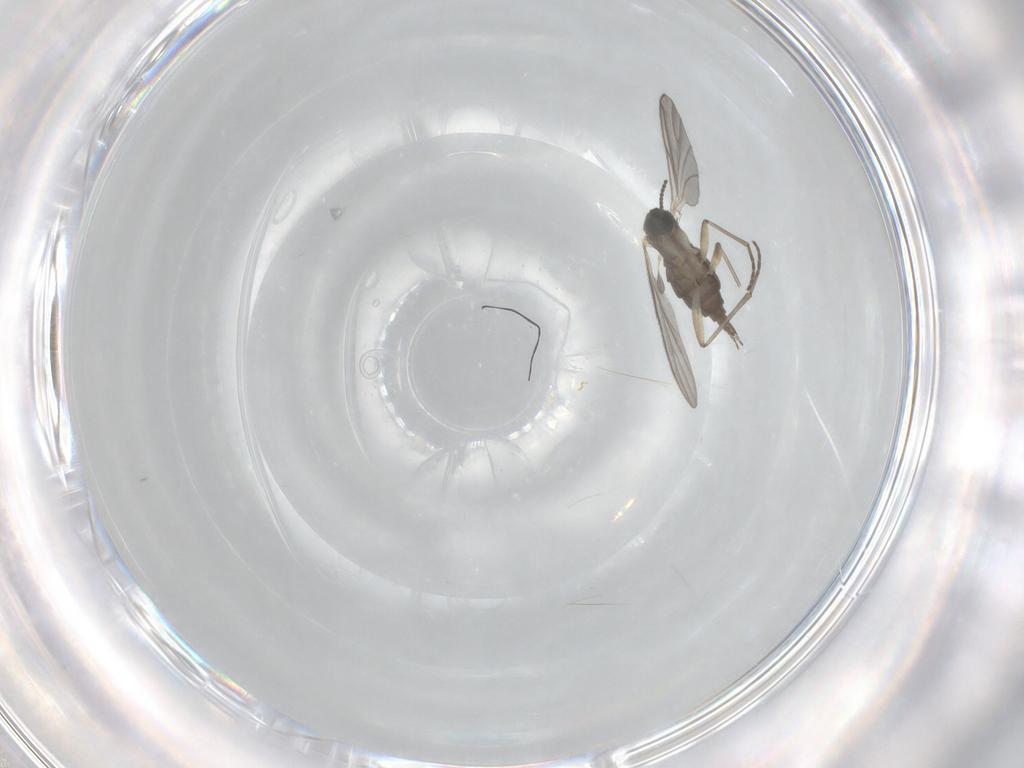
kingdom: Animalia
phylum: Arthropoda
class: Insecta
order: Diptera
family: Sciaridae
